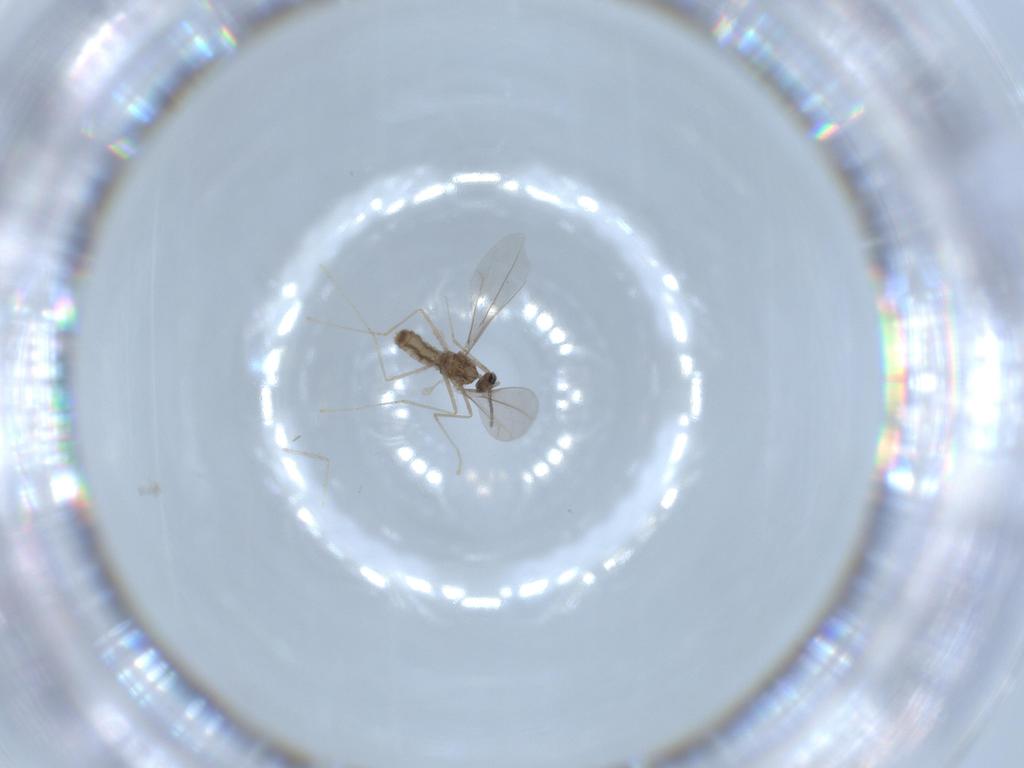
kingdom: Animalia
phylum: Arthropoda
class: Insecta
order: Diptera
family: Cecidomyiidae
